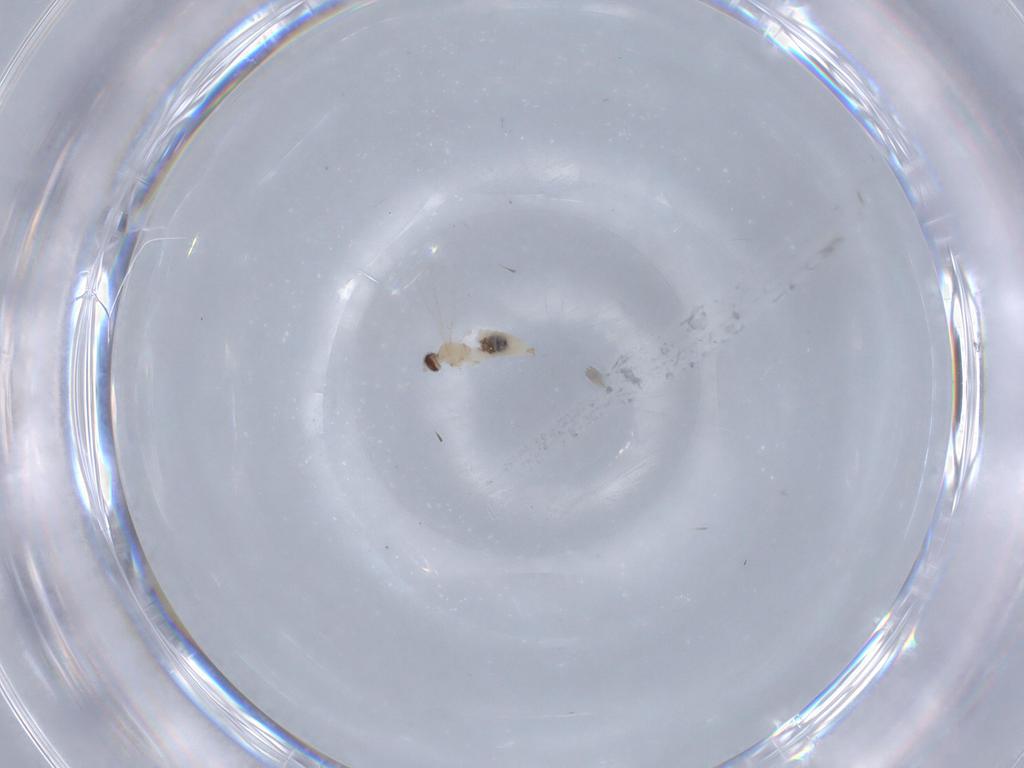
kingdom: Animalia
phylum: Arthropoda
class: Insecta
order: Diptera
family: Cecidomyiidae
